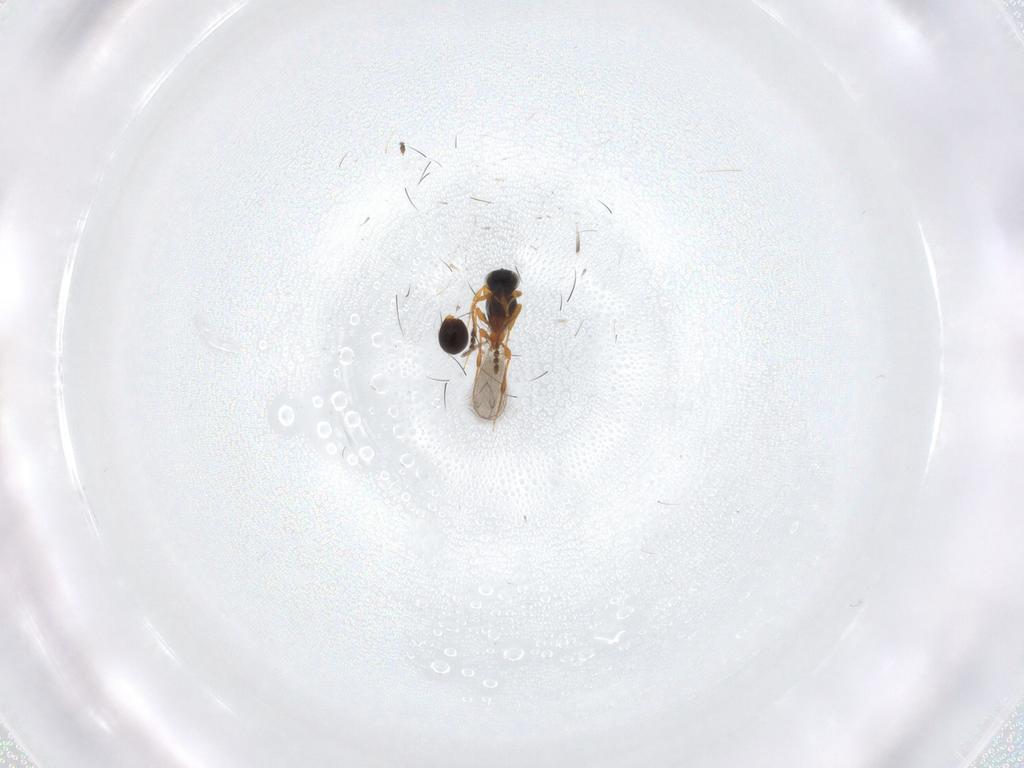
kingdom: Animalia
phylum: Arthropoda
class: Insecta
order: Hymenoptera
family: Platygastridae
